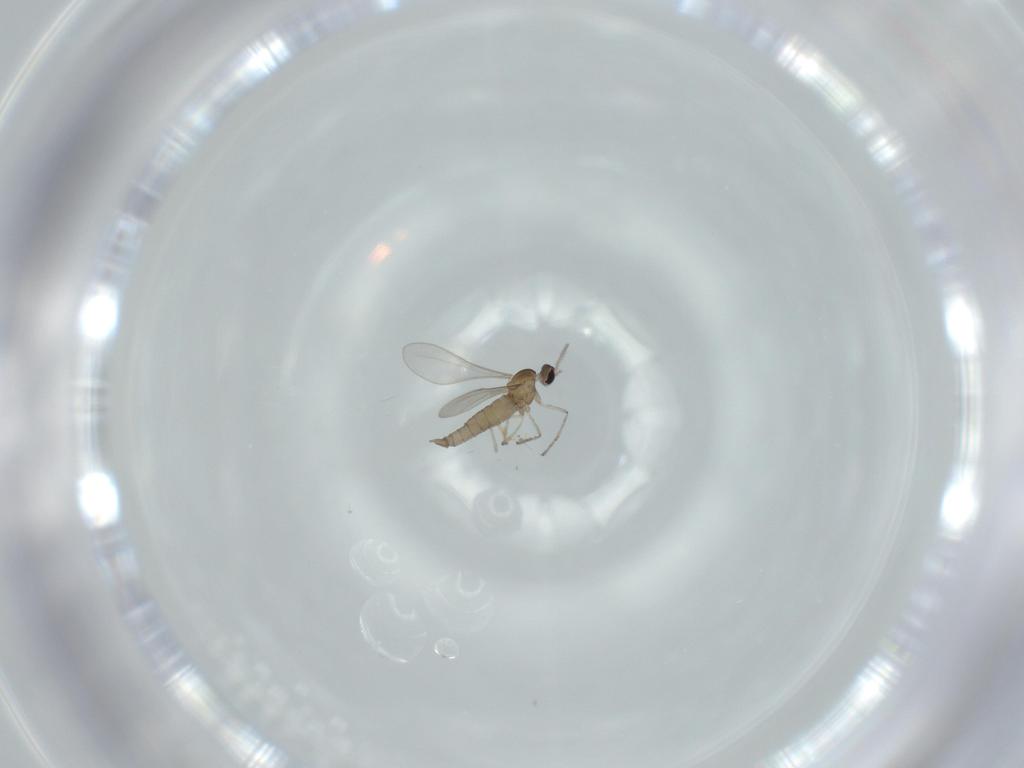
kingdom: Animalia
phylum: Arthropoda
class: Insecta
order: Diptera
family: Cecidomyiidae
